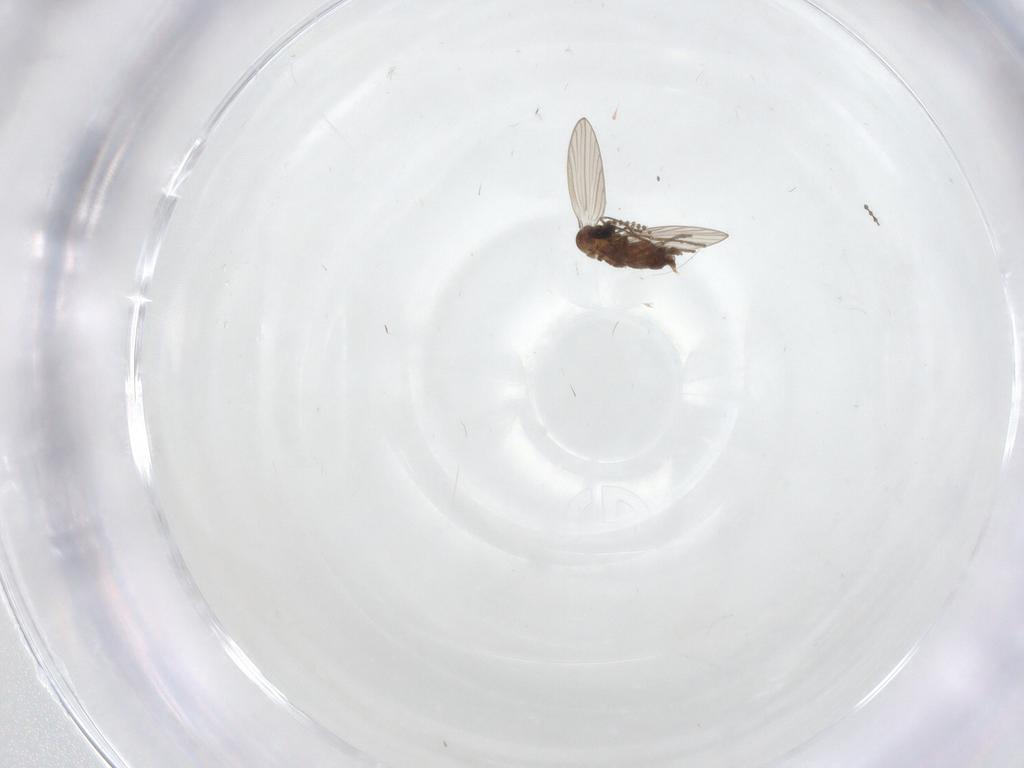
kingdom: Animalia
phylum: Arthropoda
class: Insecta
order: Diptera
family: Psychodidae
